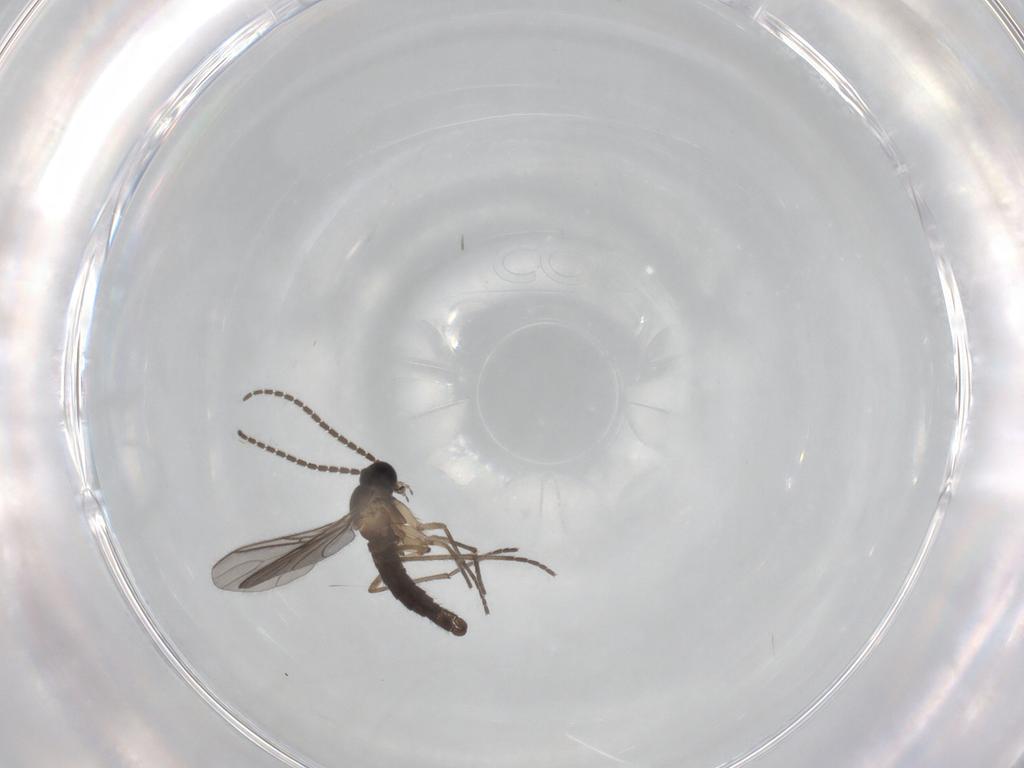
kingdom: Animalia
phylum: Arthropoda
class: Insecta
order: Diptera
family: Sciaridae
